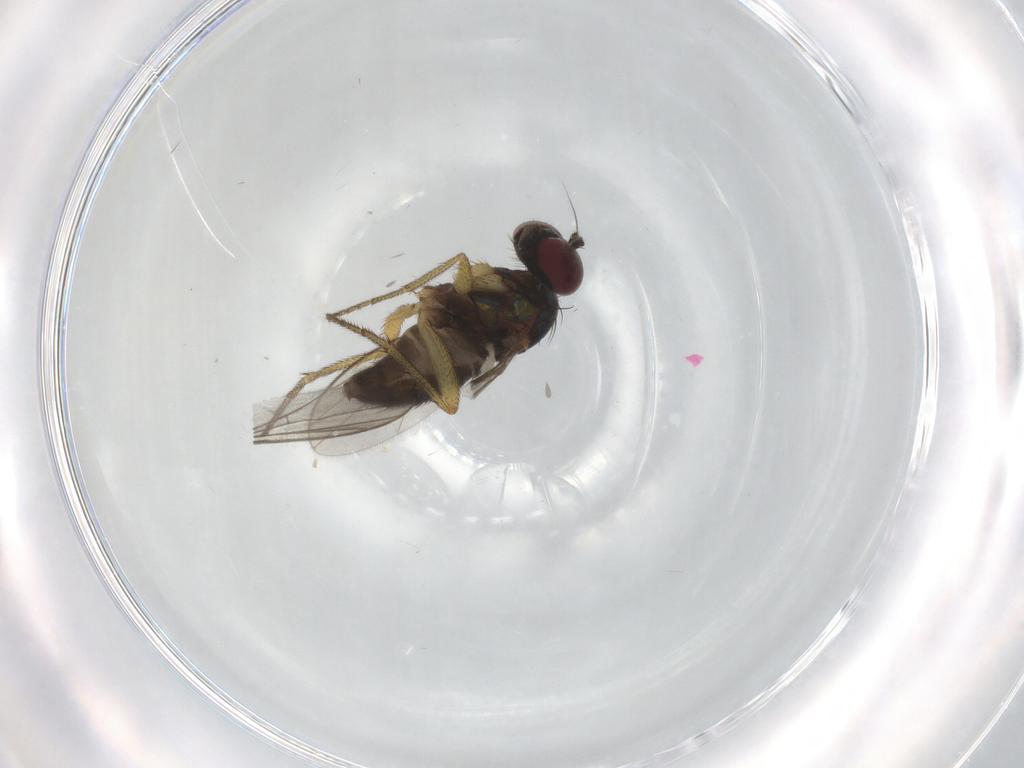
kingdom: Animalia
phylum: Arthropoda
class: Insecta
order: Diptera
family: Dolichopodidae
